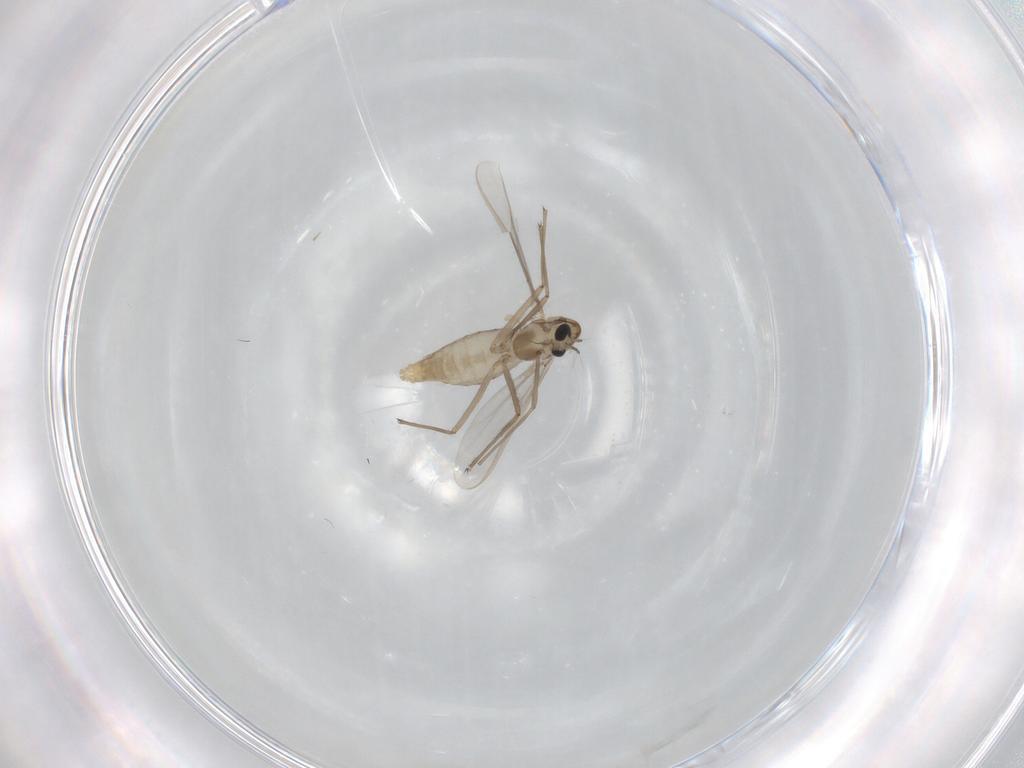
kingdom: Animalia
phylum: Arthropoda
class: Insecta
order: Diptera
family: Chironomidae
